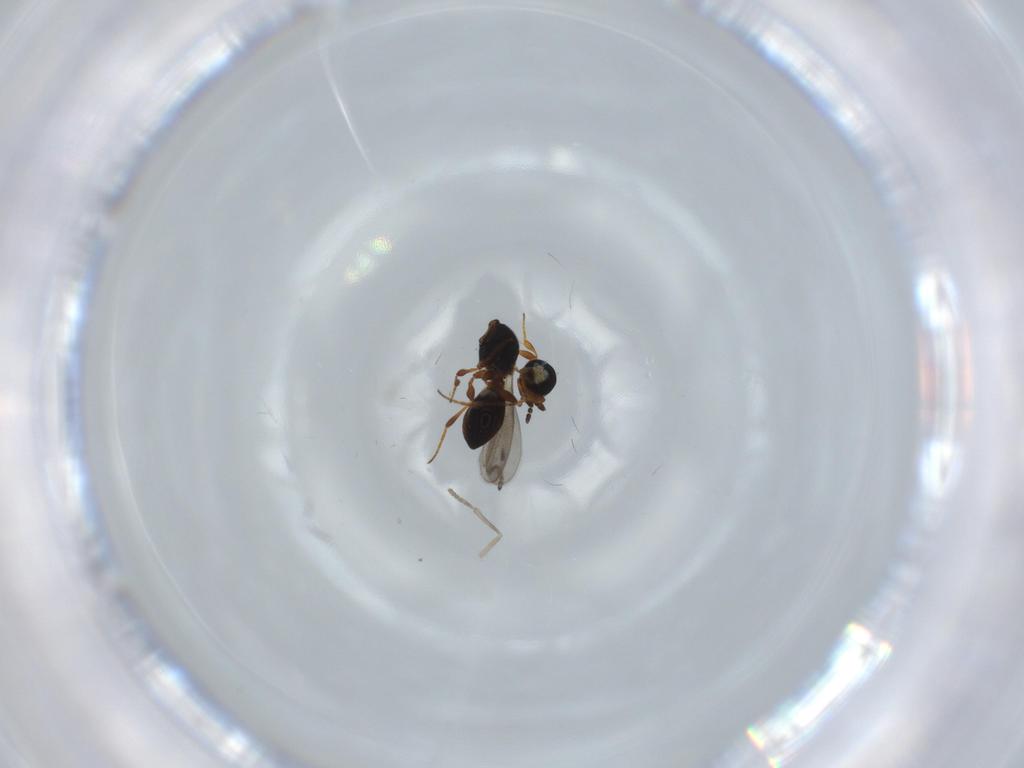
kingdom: Animalia
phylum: Arthropoda
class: Insecta
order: Hymenoptera
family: Platygastridae
